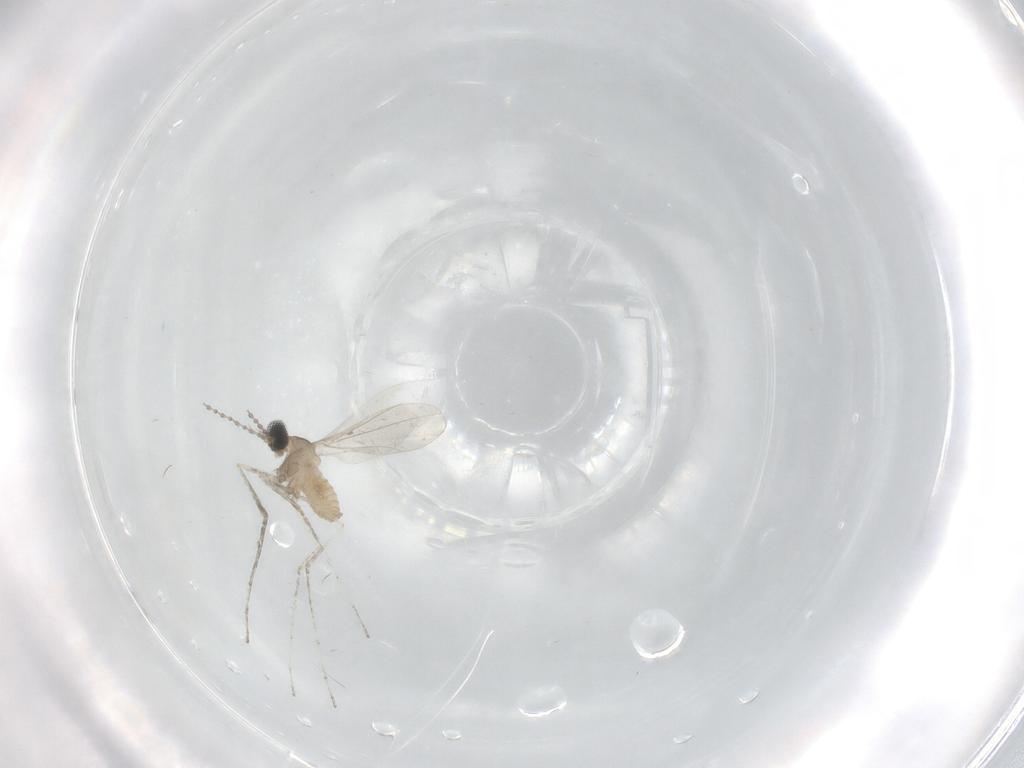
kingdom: Animalia
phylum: Arthropoda
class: Insecta
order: Diptera
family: Cecidomyiidae
